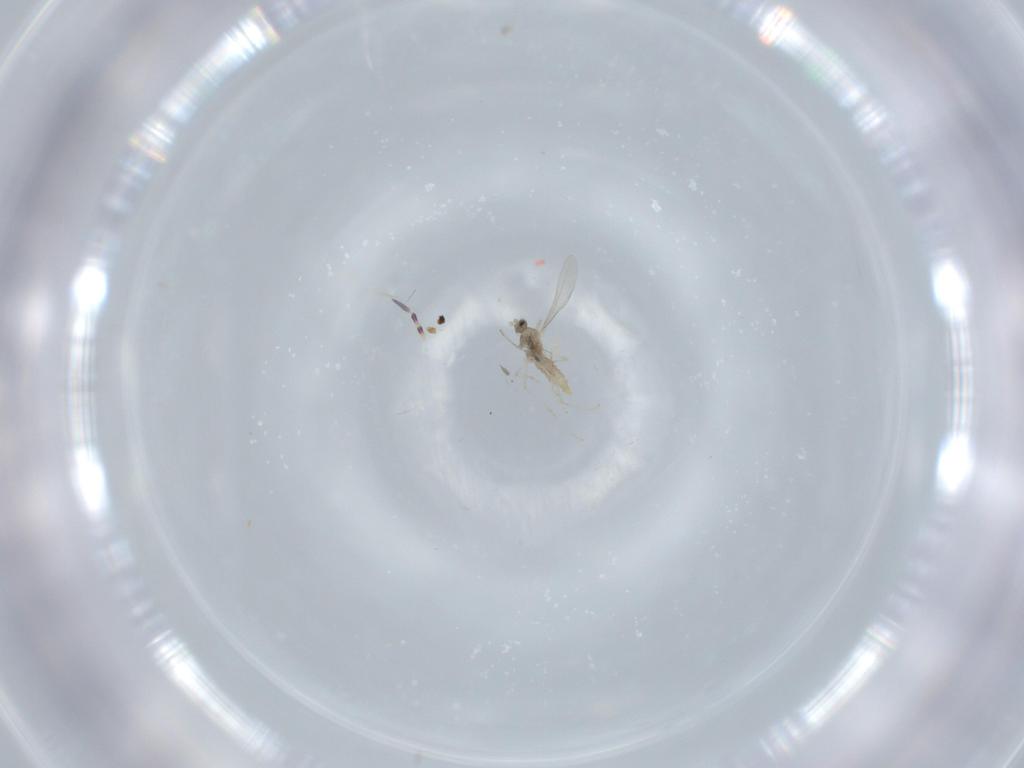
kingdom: Animalia
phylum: Arthropoda
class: Insecta
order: Diptera
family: Cecidomyiidae
